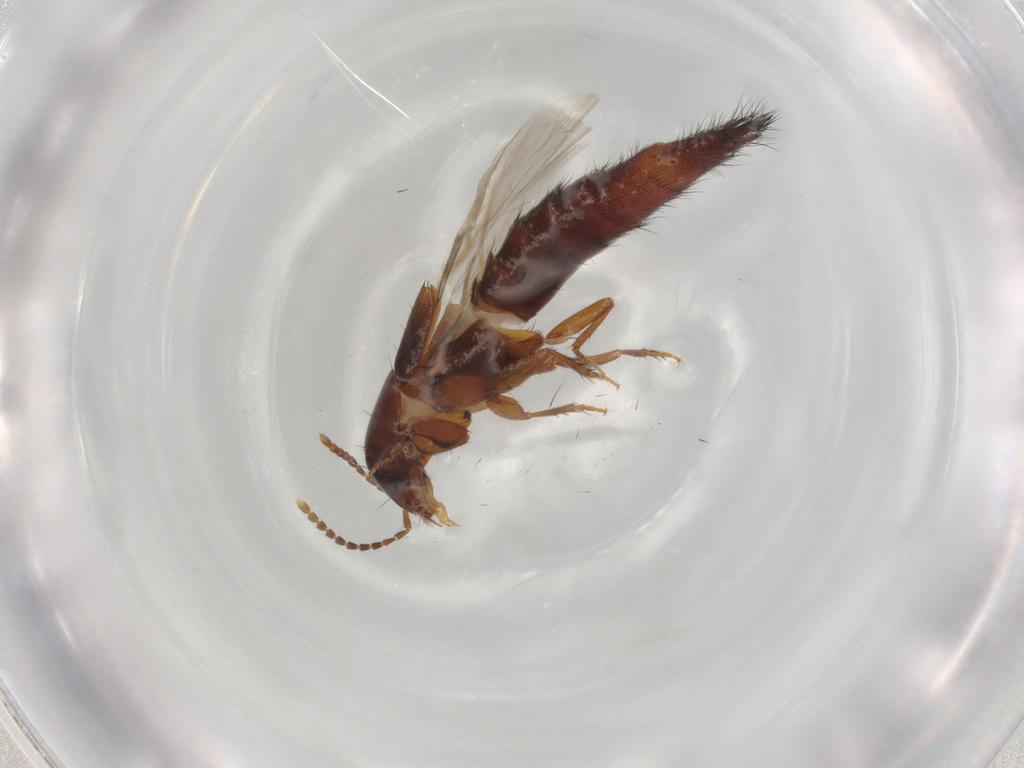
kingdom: Animalia
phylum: Arthropoda
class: Insecta
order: Coleoptera
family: Staphylinidae
